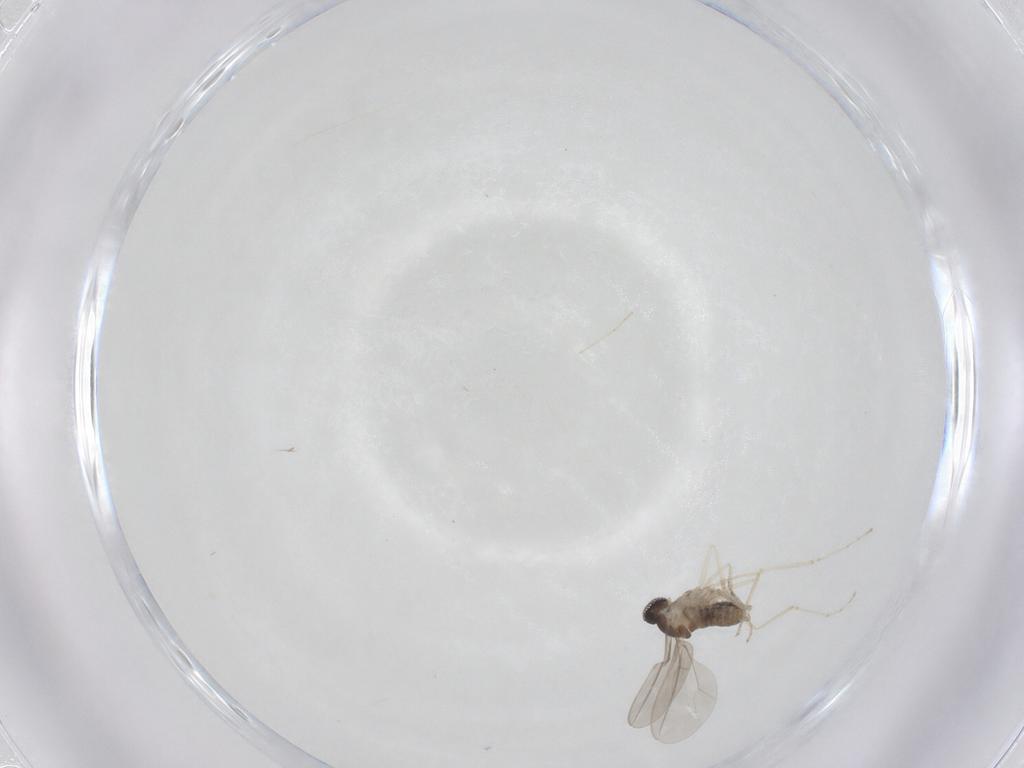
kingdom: Animalia
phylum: Arthropoda
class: Insecta
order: Diptera
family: Cecidomyiidae
